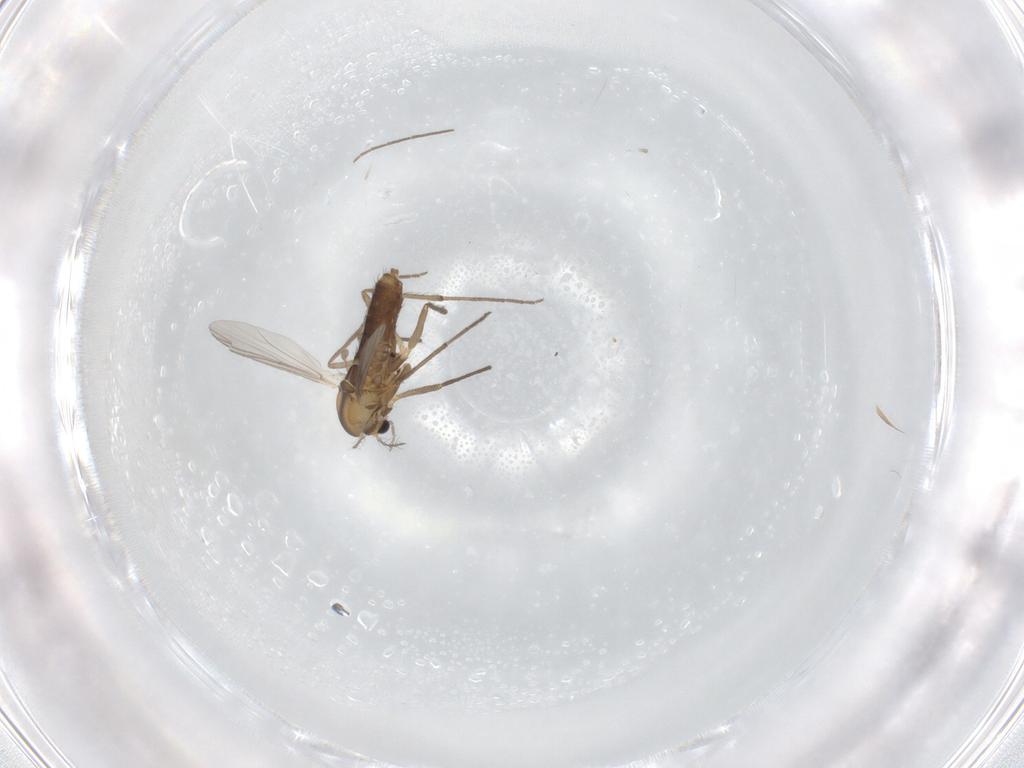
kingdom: Animalia
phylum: Arthropoda
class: Insecta
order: Diptera
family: Chironomidae
